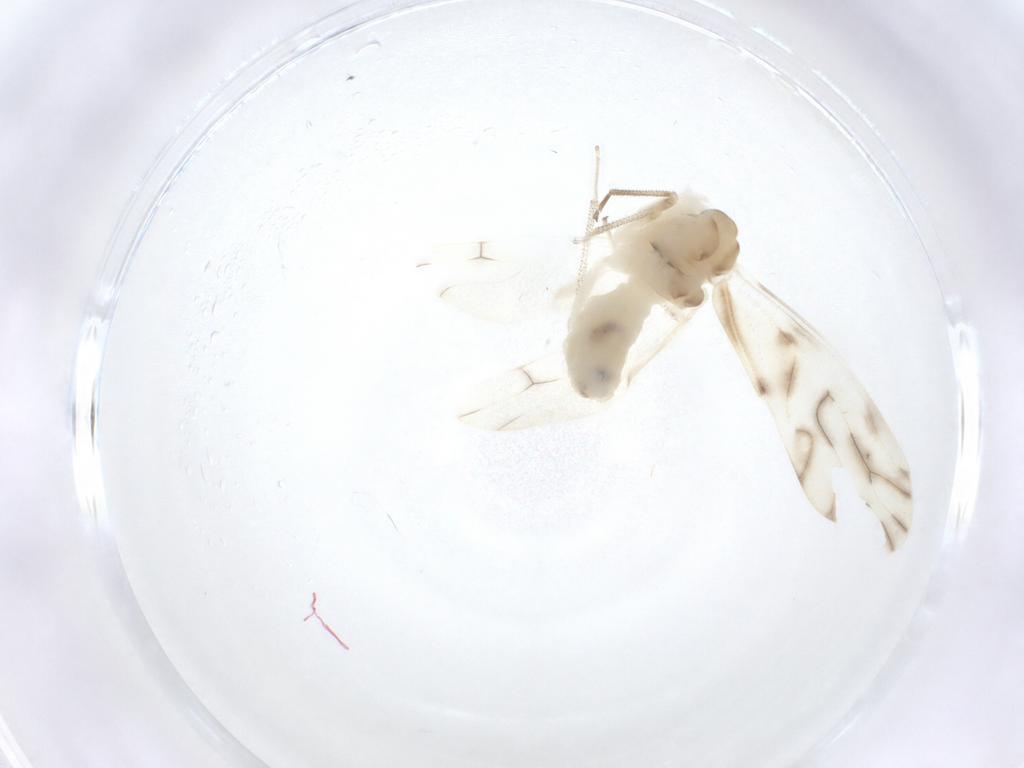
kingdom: Animalia
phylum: Arthropoda
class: Insecta
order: Psocodea
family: Caeciliusidae
